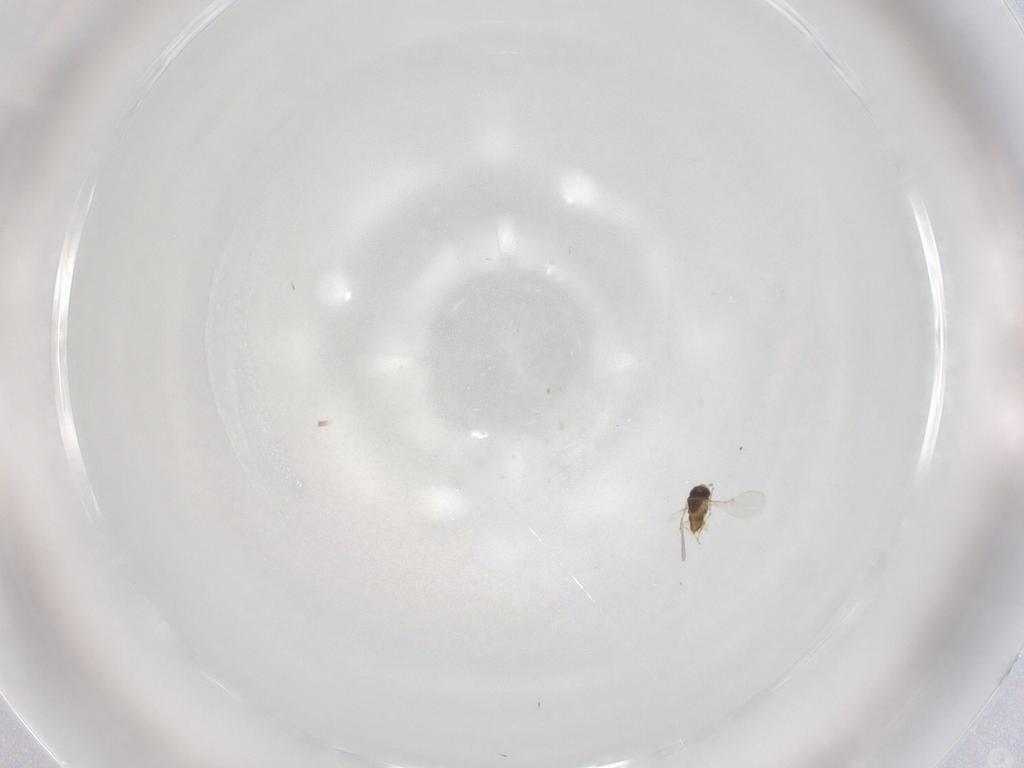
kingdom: Animalia
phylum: Arthropoda
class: Insecta
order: Hymenoptera
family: Encyrtidae
